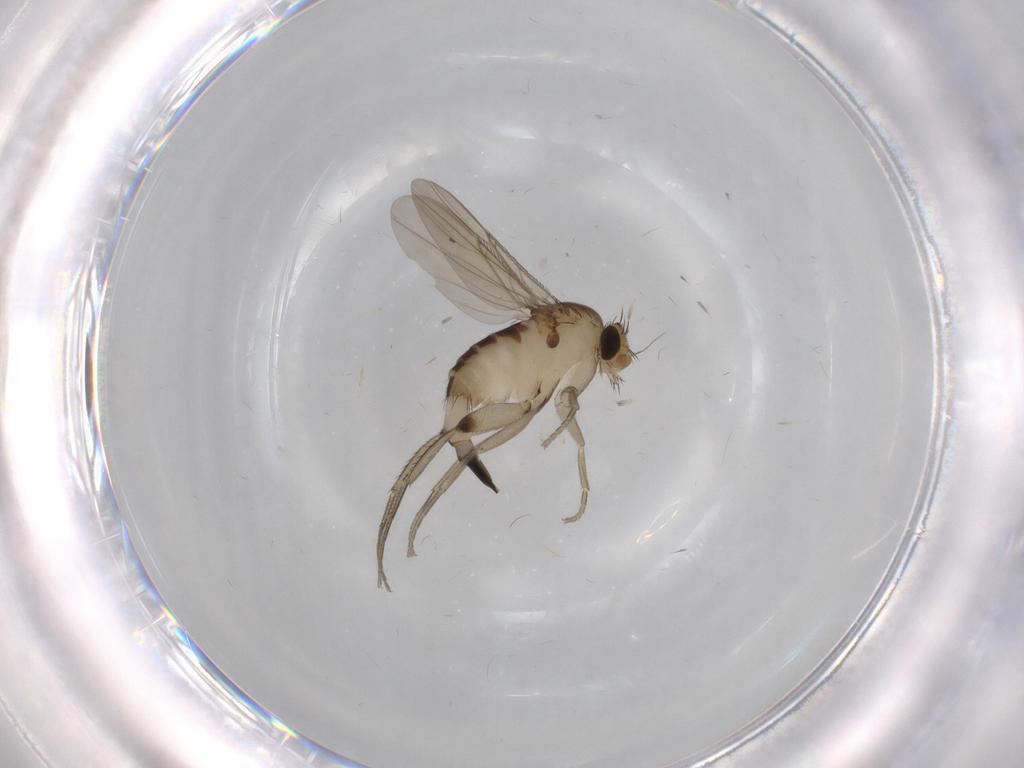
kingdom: Animalia
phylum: Arthropoda
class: Insecta
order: Diptera
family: Phoridae
